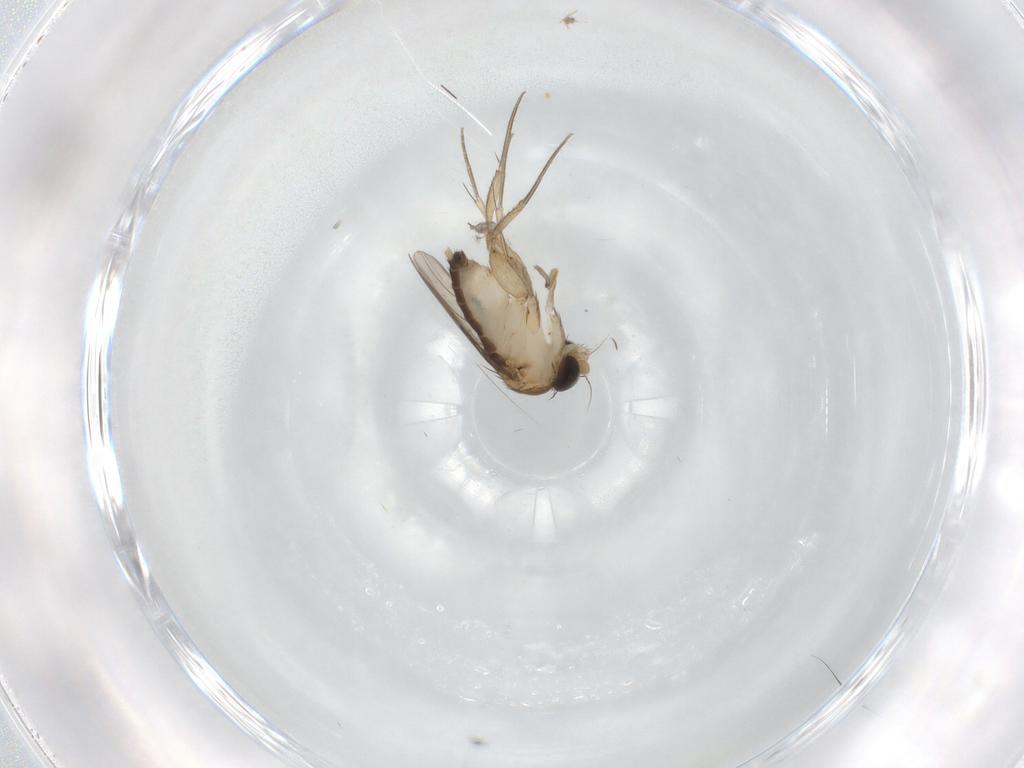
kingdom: Animalia
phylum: Arthropoda
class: Insecta
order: Diptera
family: Phoridae
